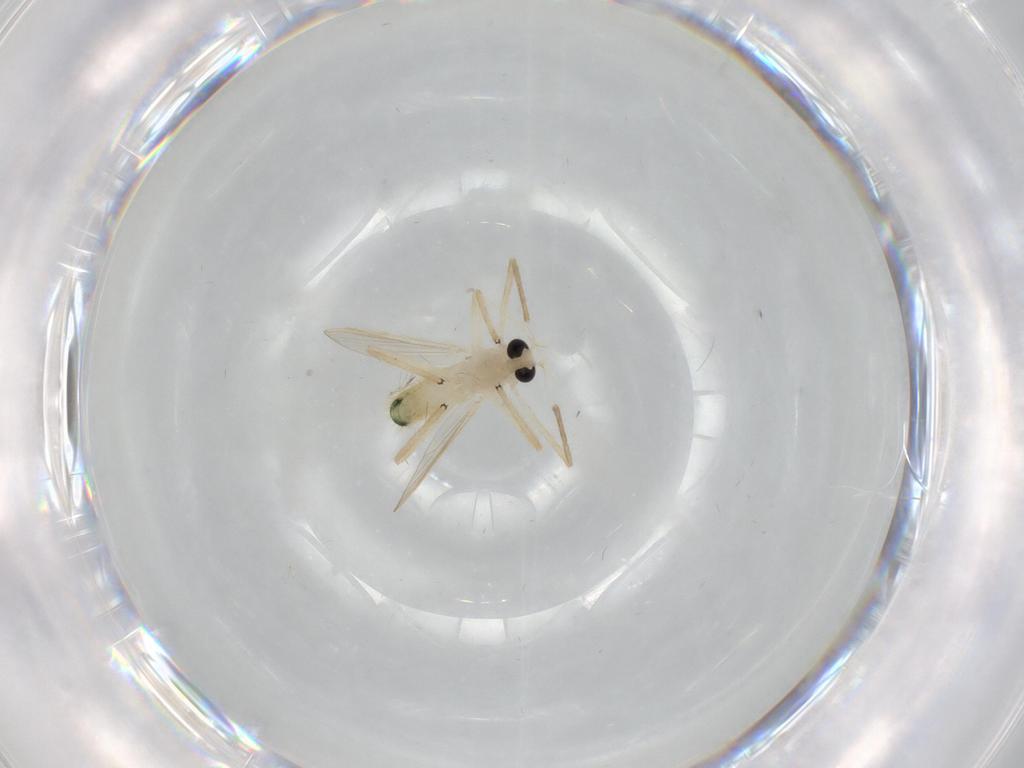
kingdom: Animalia
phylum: Arthropoda
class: Insecta
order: Diptera
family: Chironomidae
